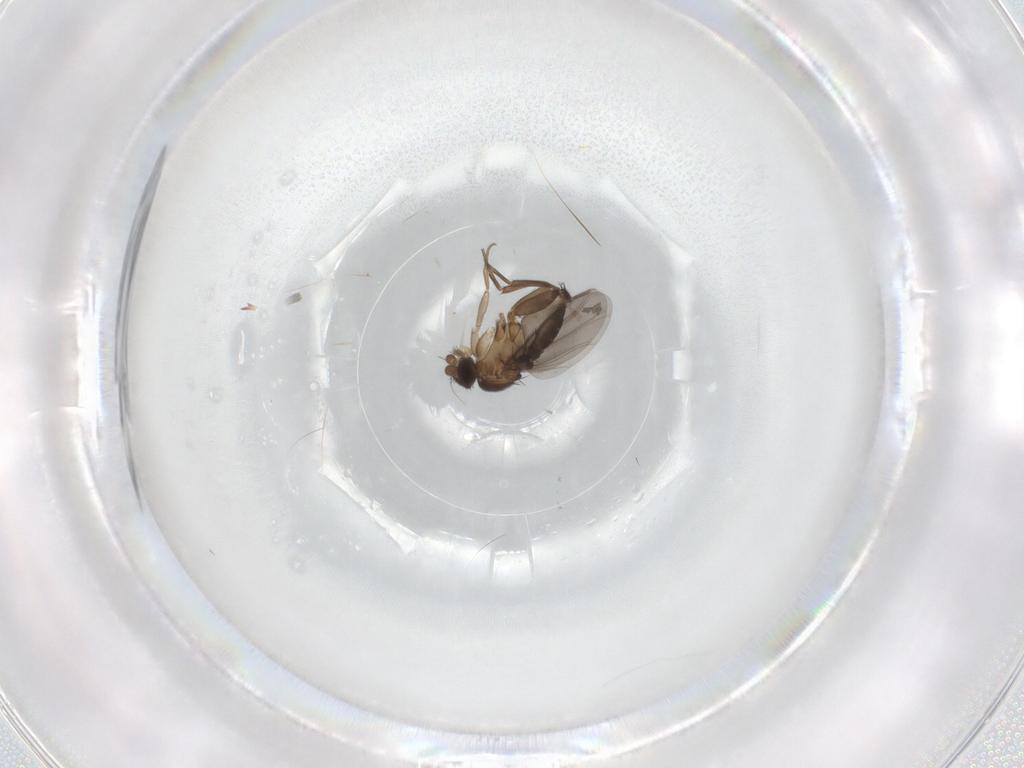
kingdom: Animalia
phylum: Arthropoda
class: Insecta
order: Diptera
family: Phoridae
